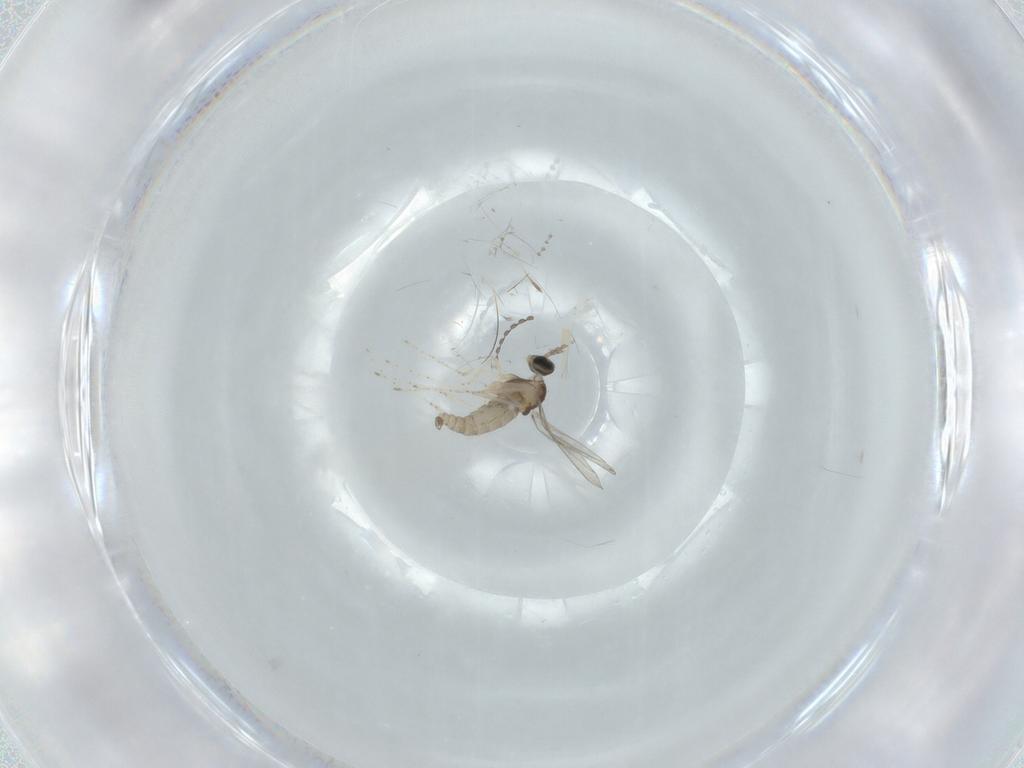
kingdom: Animalia
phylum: Arthropoda
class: Insecta
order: Diptera
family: Cecidomyiidae
